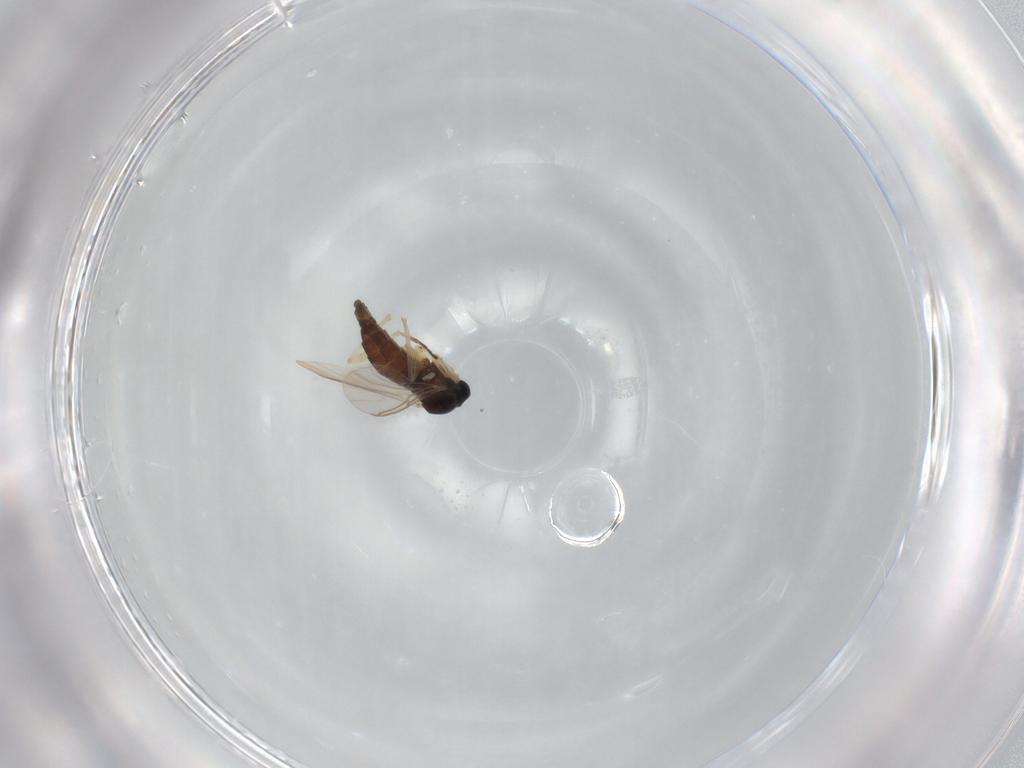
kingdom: Animalia
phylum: Arthropoda
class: Insecta
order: Diptera
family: Sciaridae
